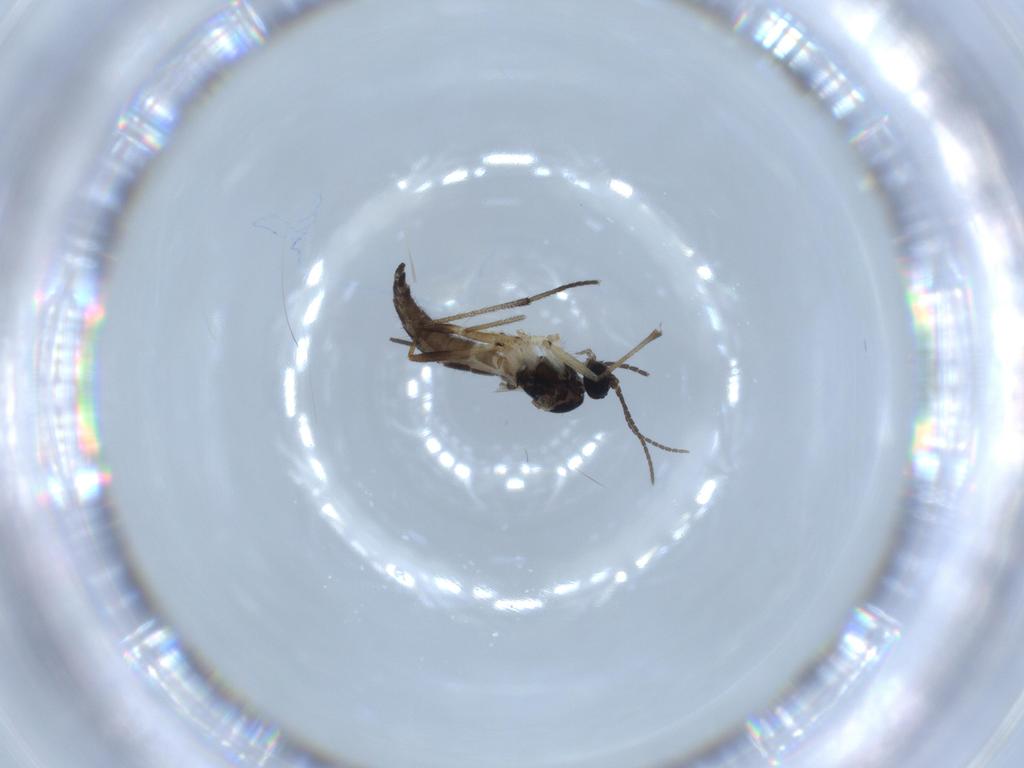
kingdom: Animalia
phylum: Arthropoda
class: Insecta
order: Diptera
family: Sciaridae
